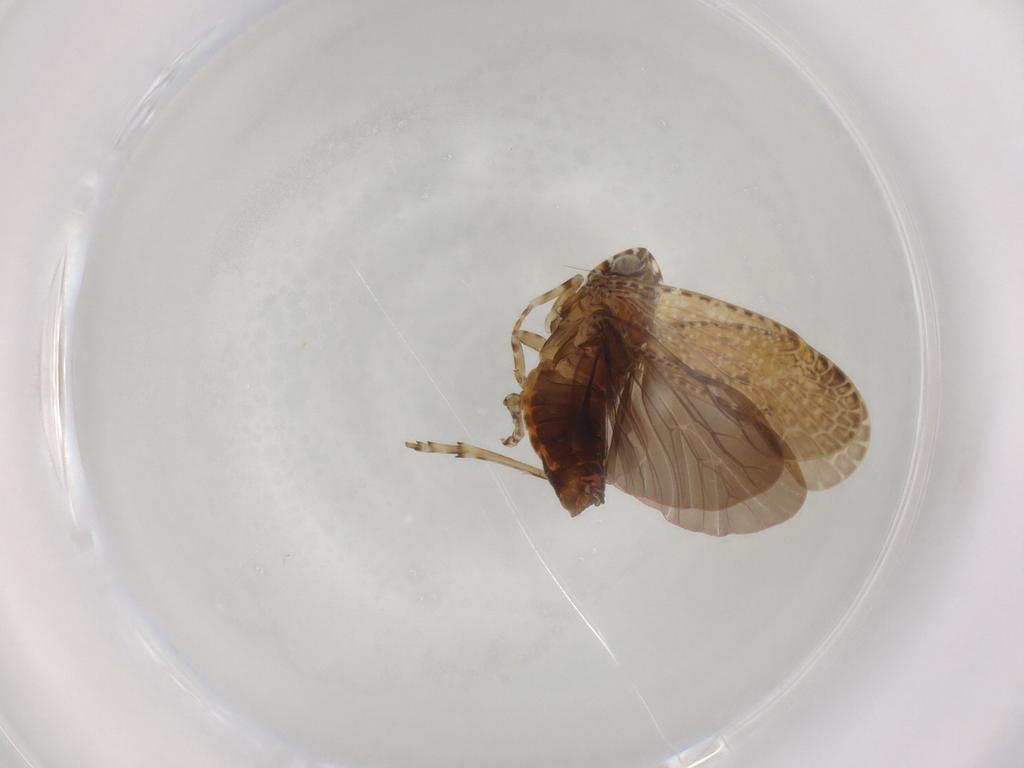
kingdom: Animalia
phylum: Arthropoda
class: Insecta
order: Hemiptera
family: Achilidae
